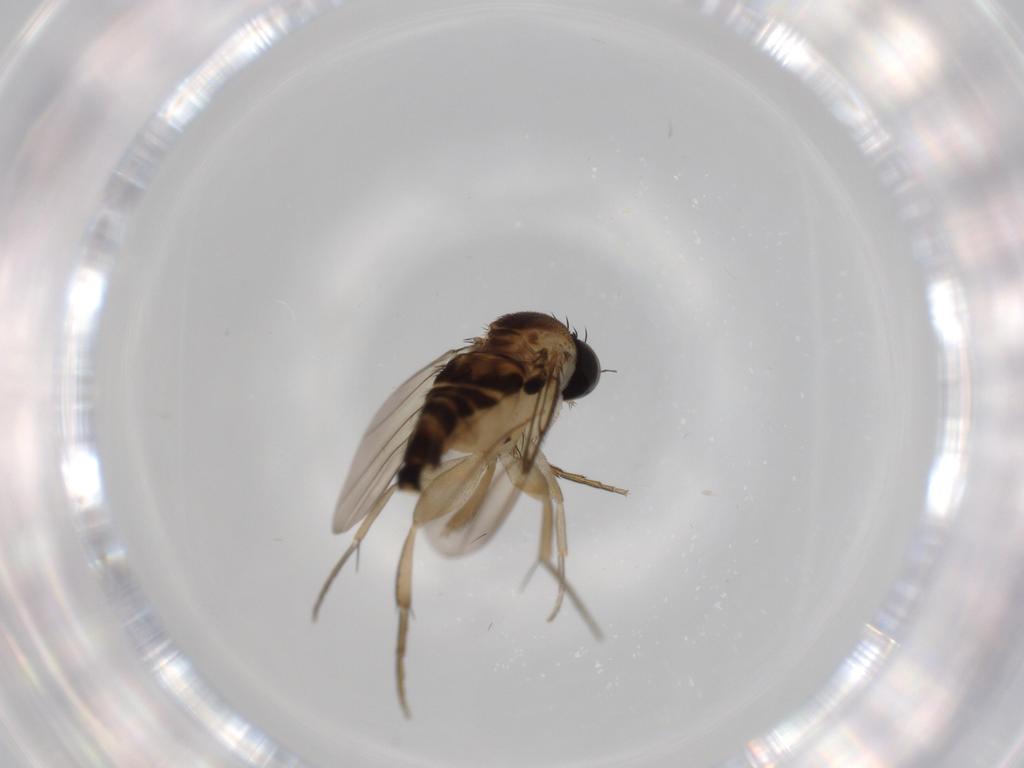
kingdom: Animalia
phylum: Arthropoda
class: Insecta
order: Diptera
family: Phoridae
